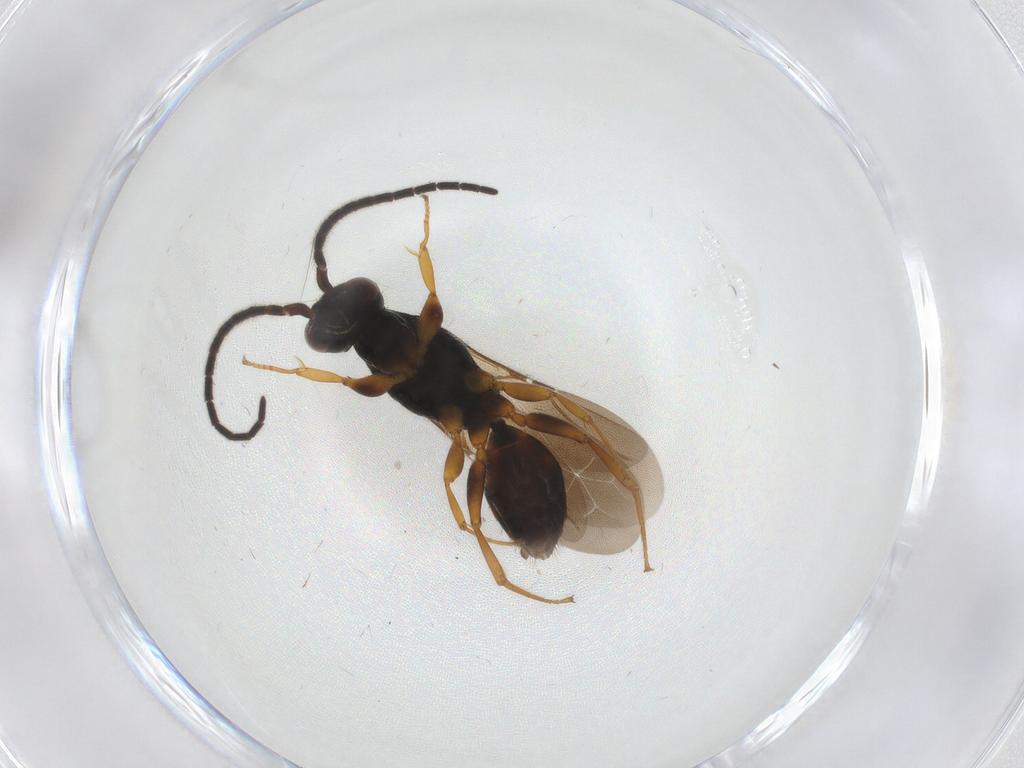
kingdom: Animalia
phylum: Arthropoda
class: Insecta
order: Hymenoptera
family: Bethylidae
